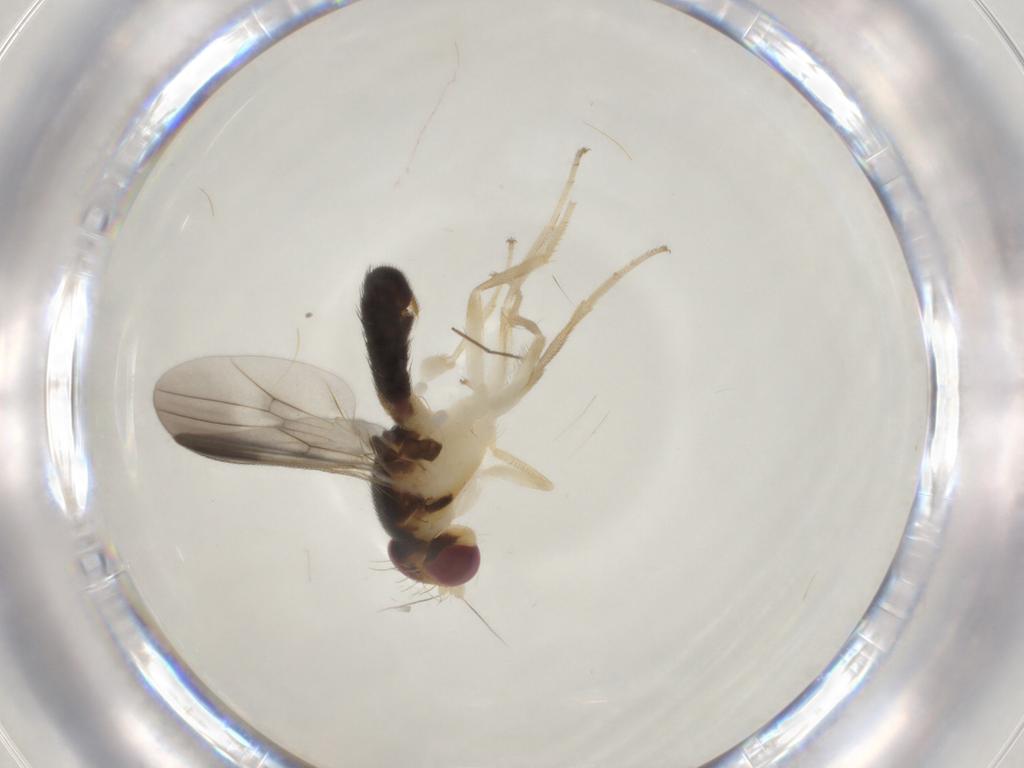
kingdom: Animalia
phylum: Arthropoda
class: Insecta
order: Diptera
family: Clusiidae
